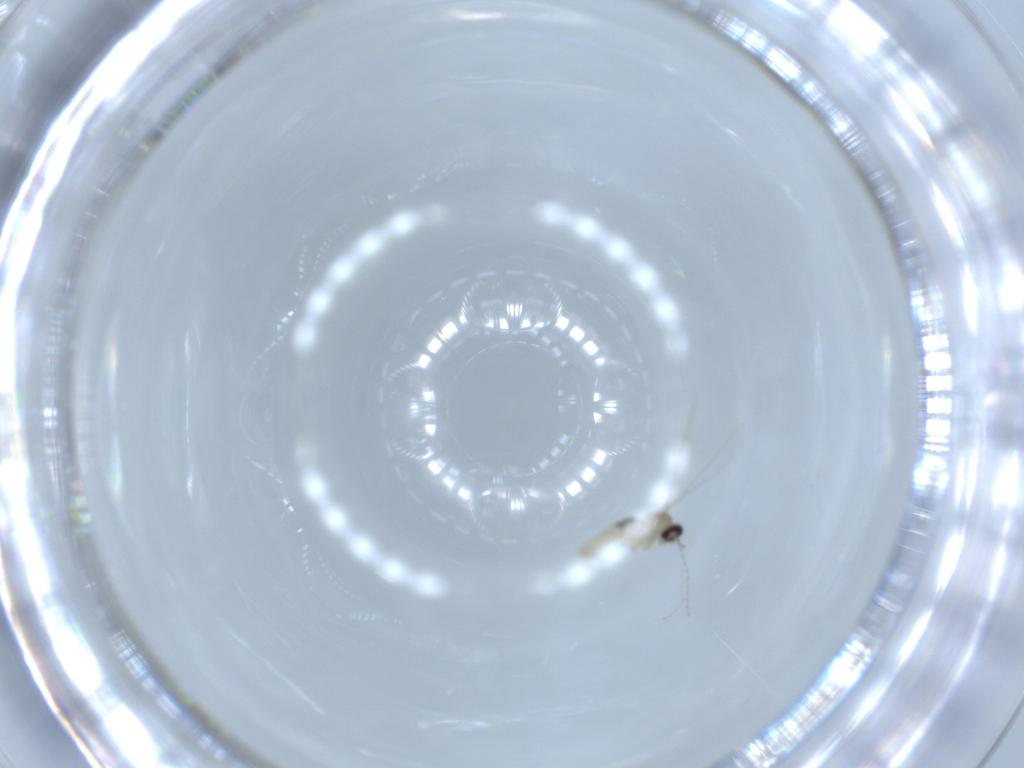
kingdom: Animalia
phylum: Arthropoda
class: Insecta
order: Diptera
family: Cecidomyiidae
